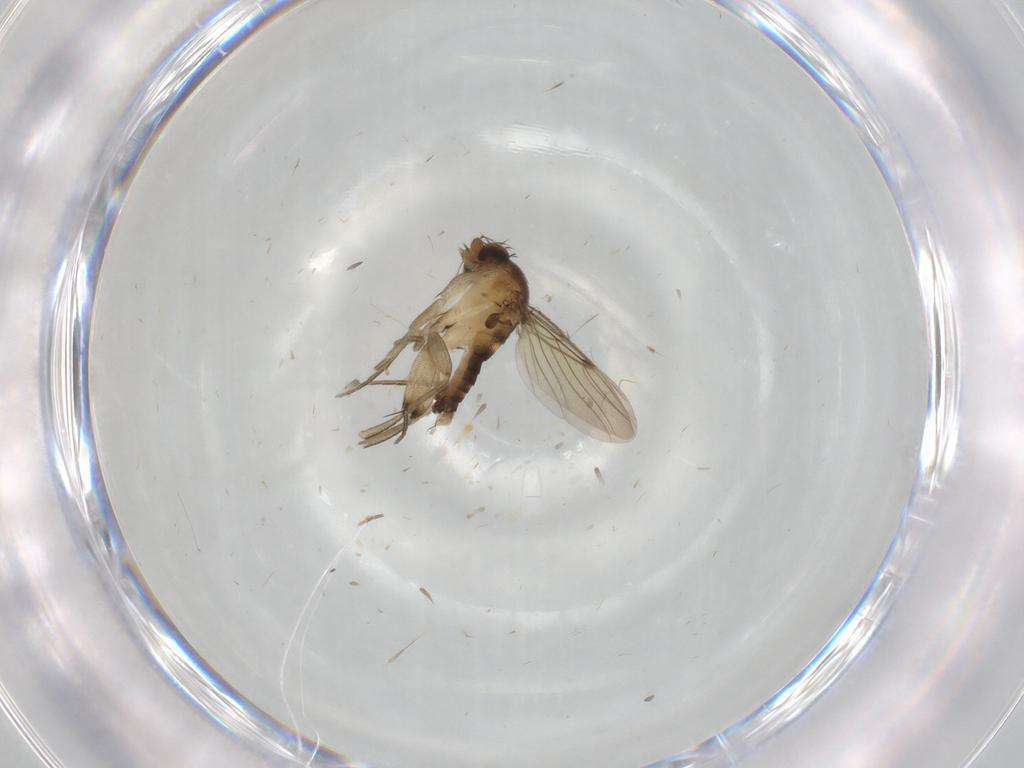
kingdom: Animalia
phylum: Arthropoda
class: Insecta
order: Diptera
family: Phoridae
